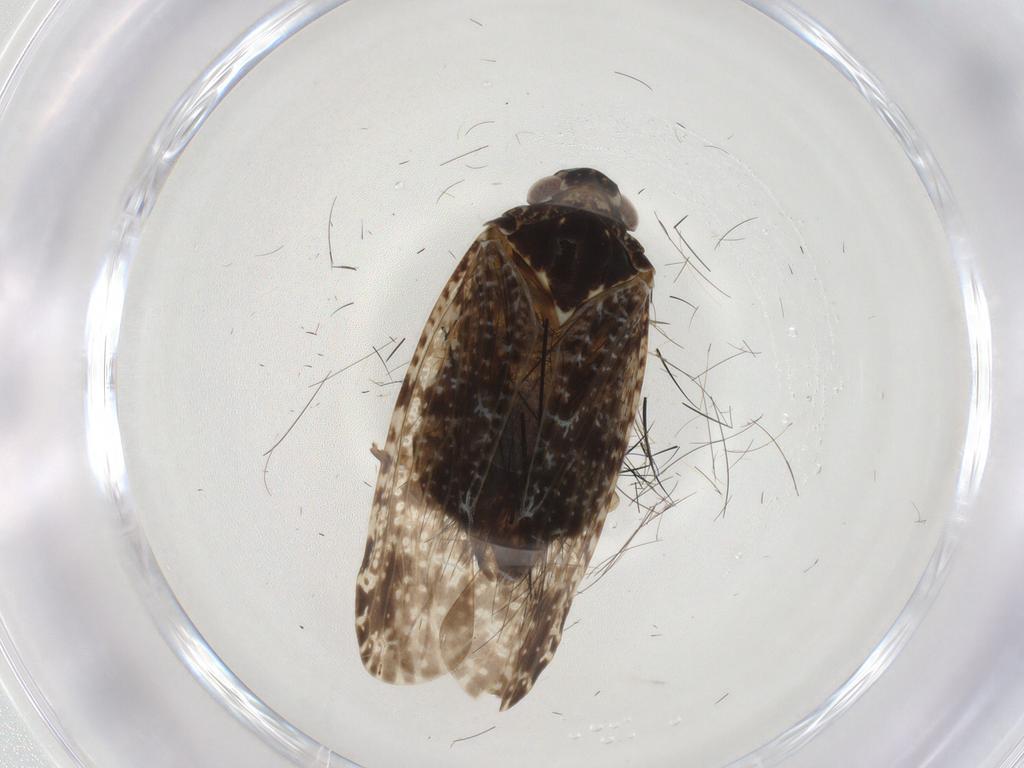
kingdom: Animalia
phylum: Arthropoda
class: Insecta
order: Hemiptera
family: Achilidae
